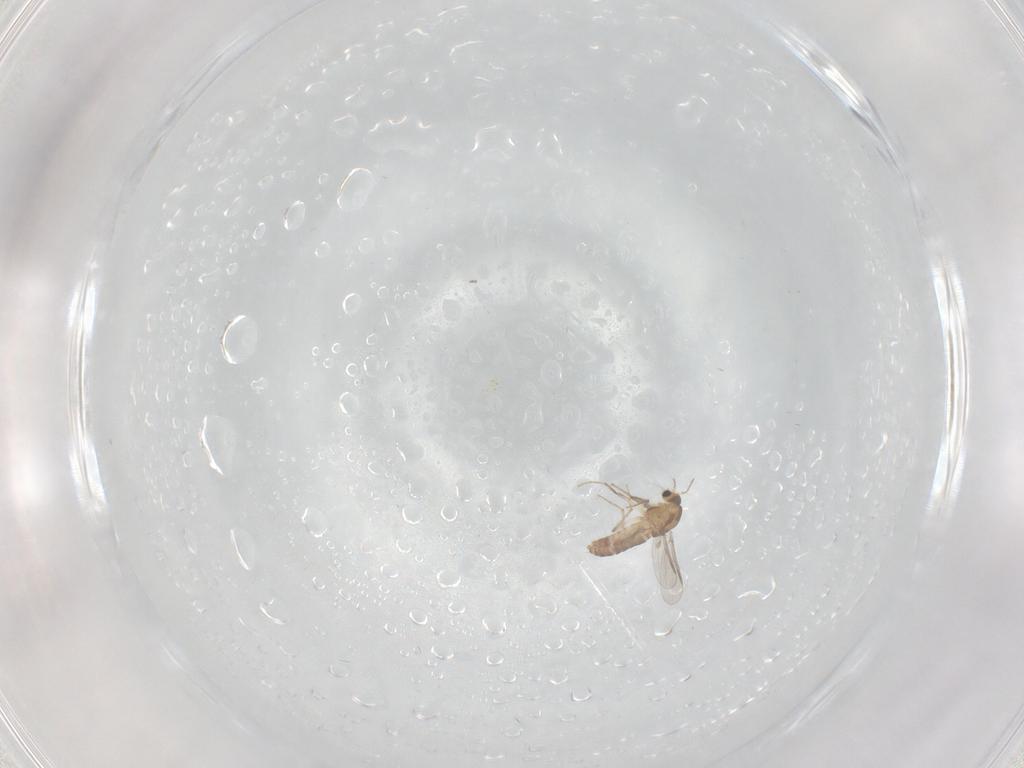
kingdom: Animalia
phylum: Arthropoda
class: Insecta
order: Diptera
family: Chironomidae
